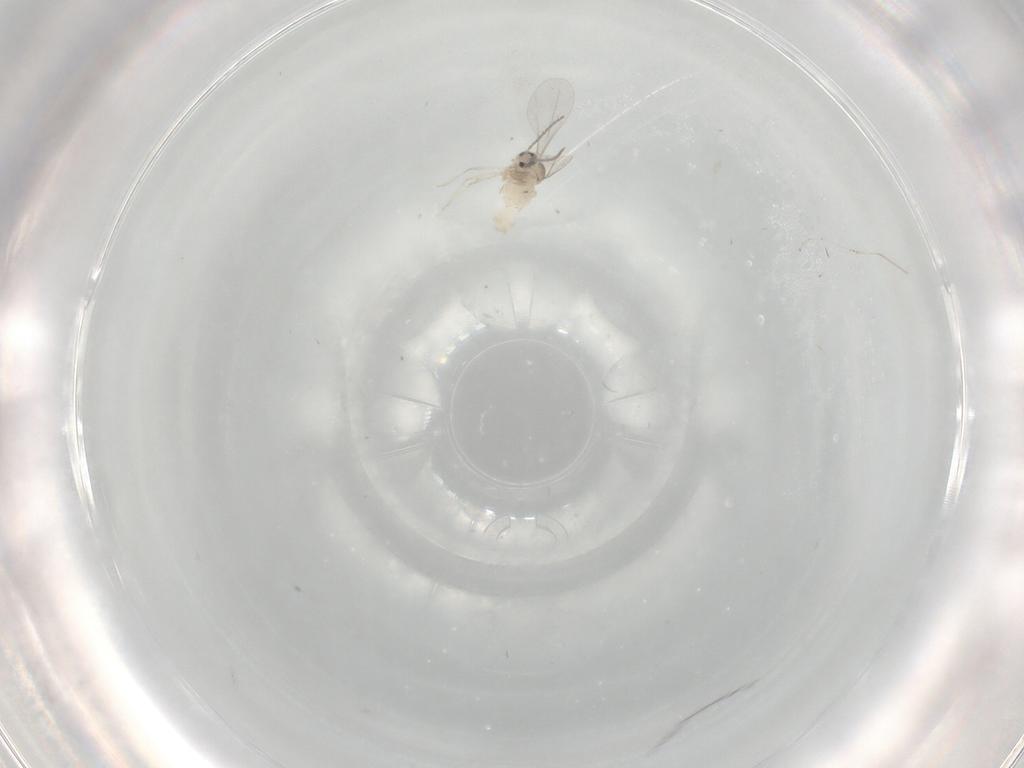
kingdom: Animalia
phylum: Arthropoda
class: Insecta
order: Diptera
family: Cecidomyiidae
